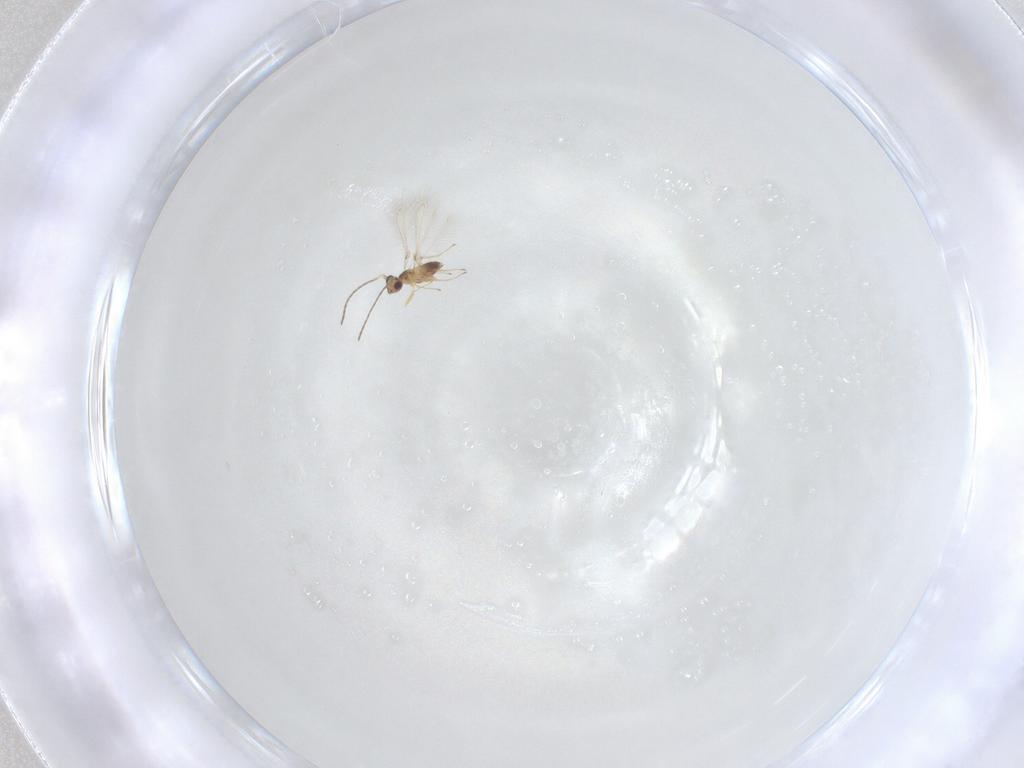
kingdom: Animalia
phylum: Arthropoda
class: Insecta
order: Hymenoptera
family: Mymaridae
